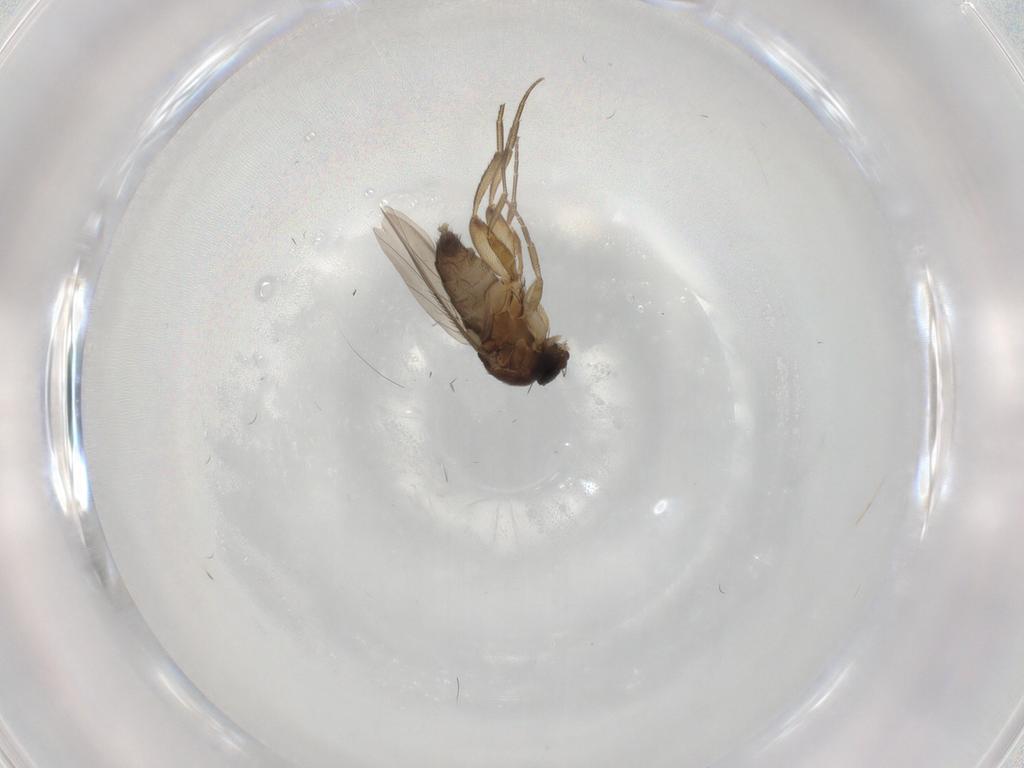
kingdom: Animalia
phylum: Arthropoda
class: Insecta
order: Diptera
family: Phoridae
